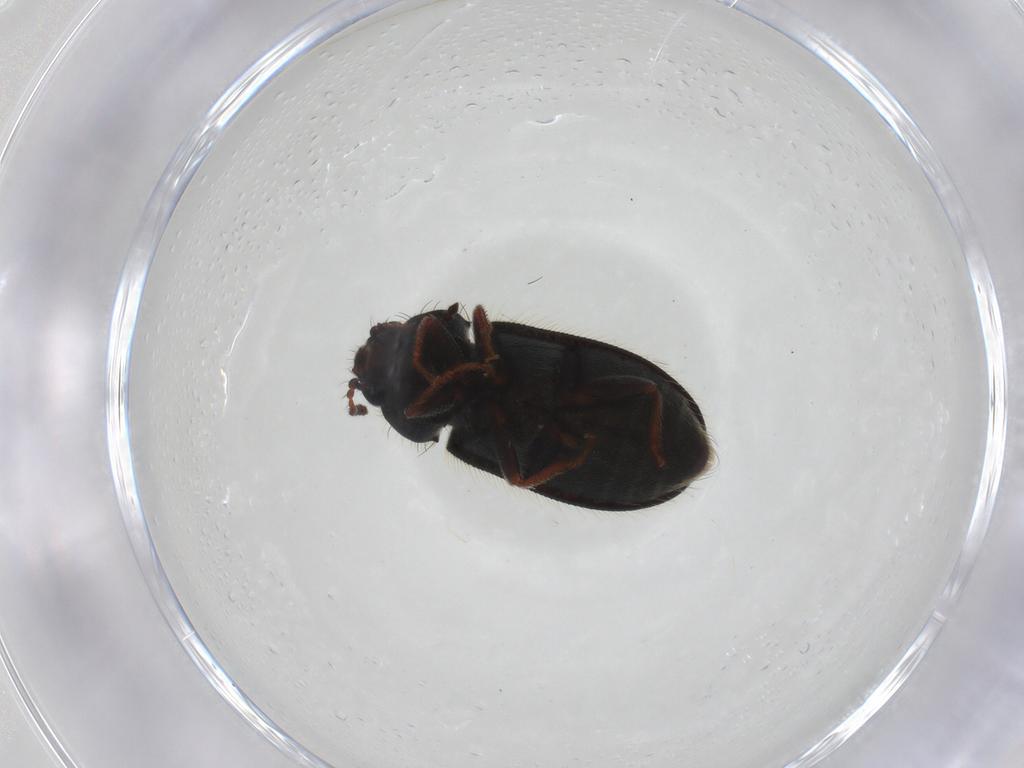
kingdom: Animalia
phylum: Arthropoda
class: Insecta
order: Coleoptera
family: Melyridae
